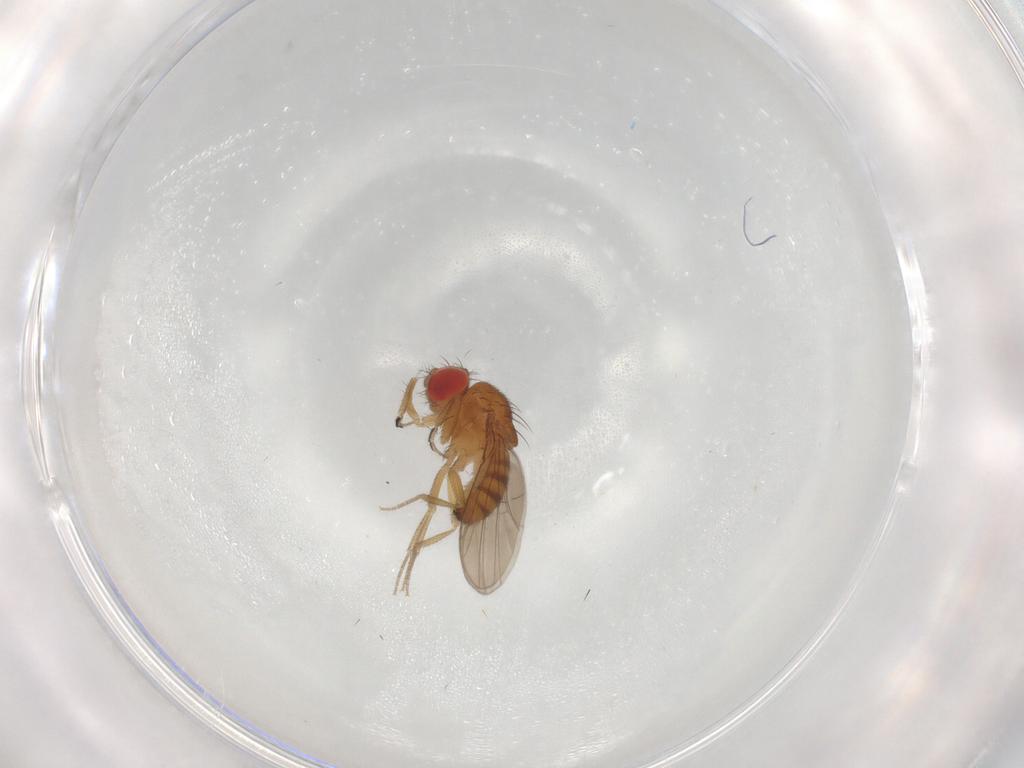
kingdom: Animalia
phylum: Arthropoda
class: Insecta
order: Diptera
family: Drosophilidae
